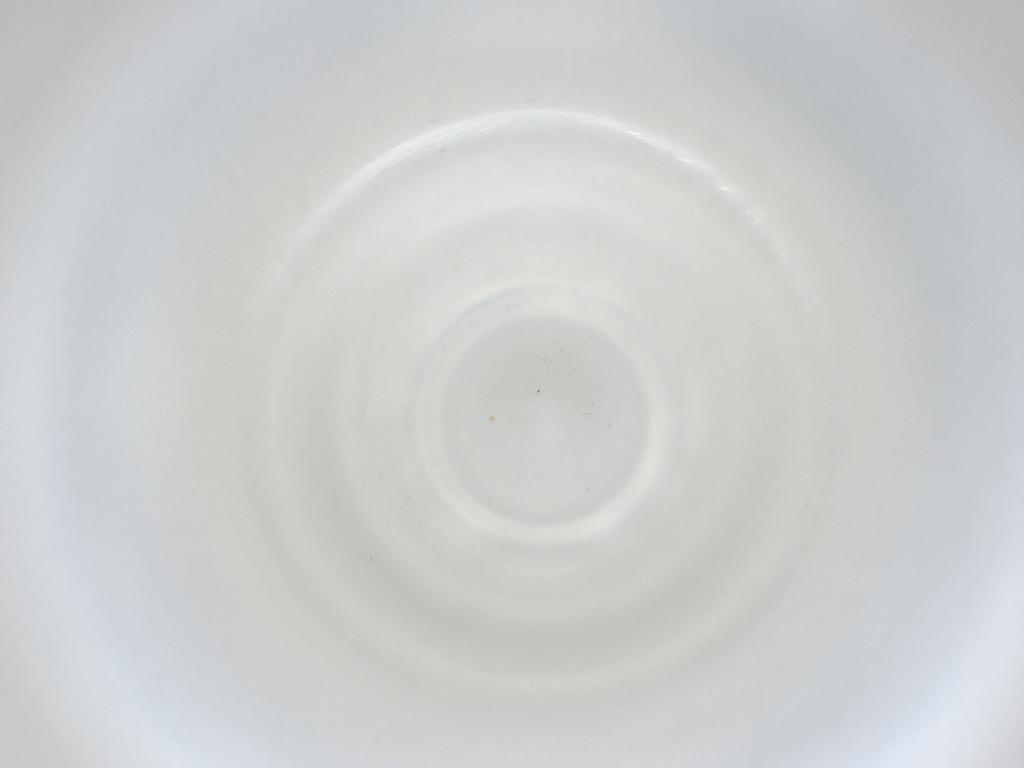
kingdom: Animalia
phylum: Arthropoda
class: Insecta
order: Diptera
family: Cecidomyiidae
